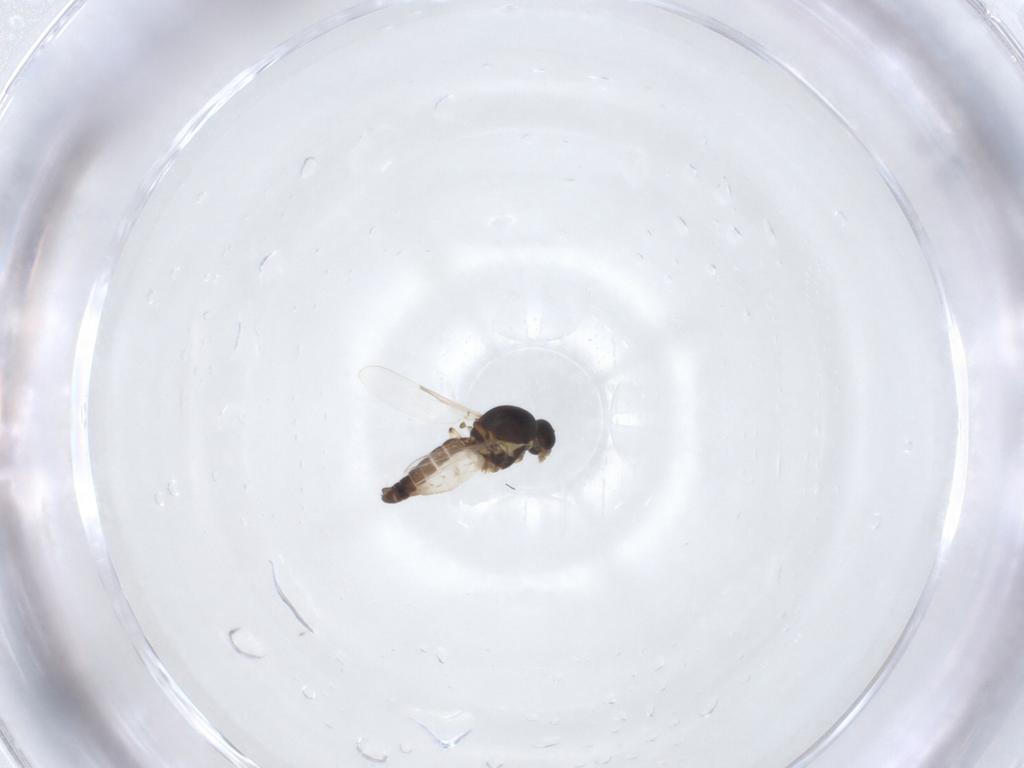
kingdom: Animalia
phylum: Arthropoda
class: Insecta
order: Diptera
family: Ceratopogonidae
